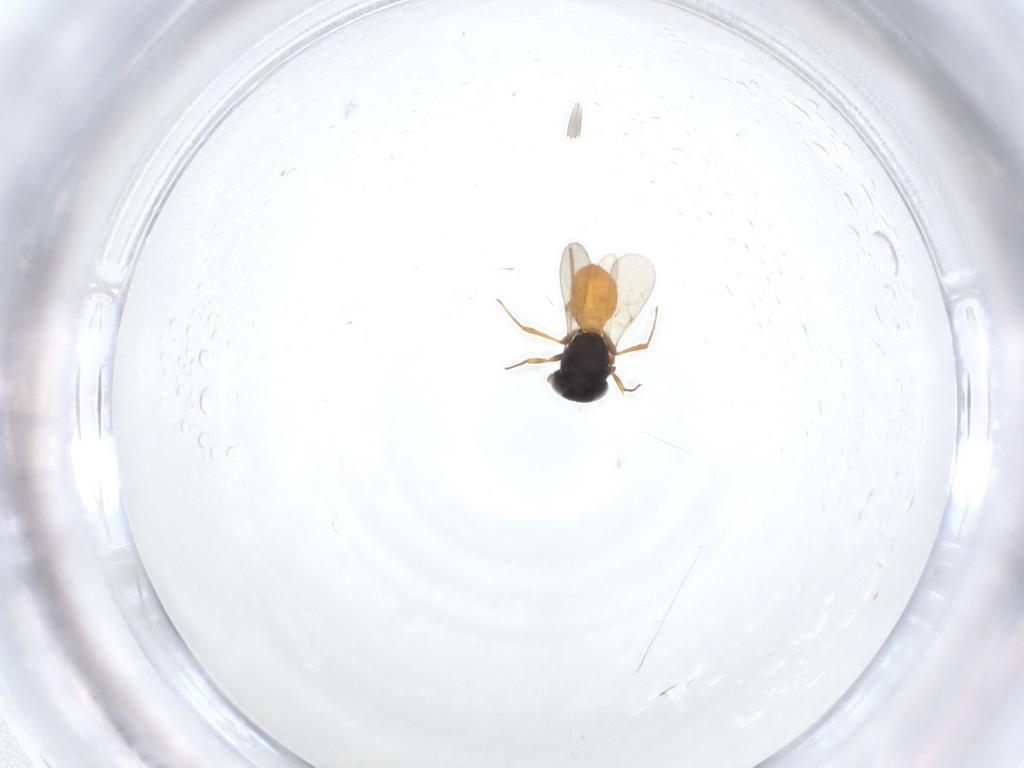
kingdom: Animalia
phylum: Arthropoda
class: Insecta
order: Hymenoptera
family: Scelionidae
